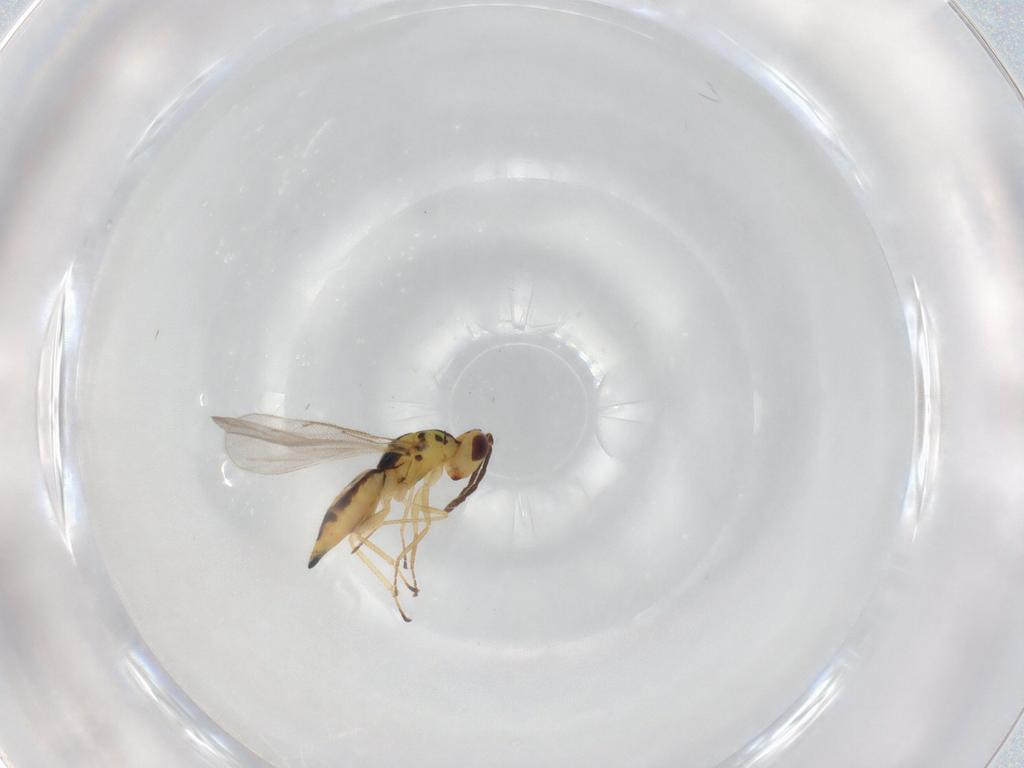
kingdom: Animalia
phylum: Arthropoda
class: Insecta
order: Hymenoptera
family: Eulophidae
